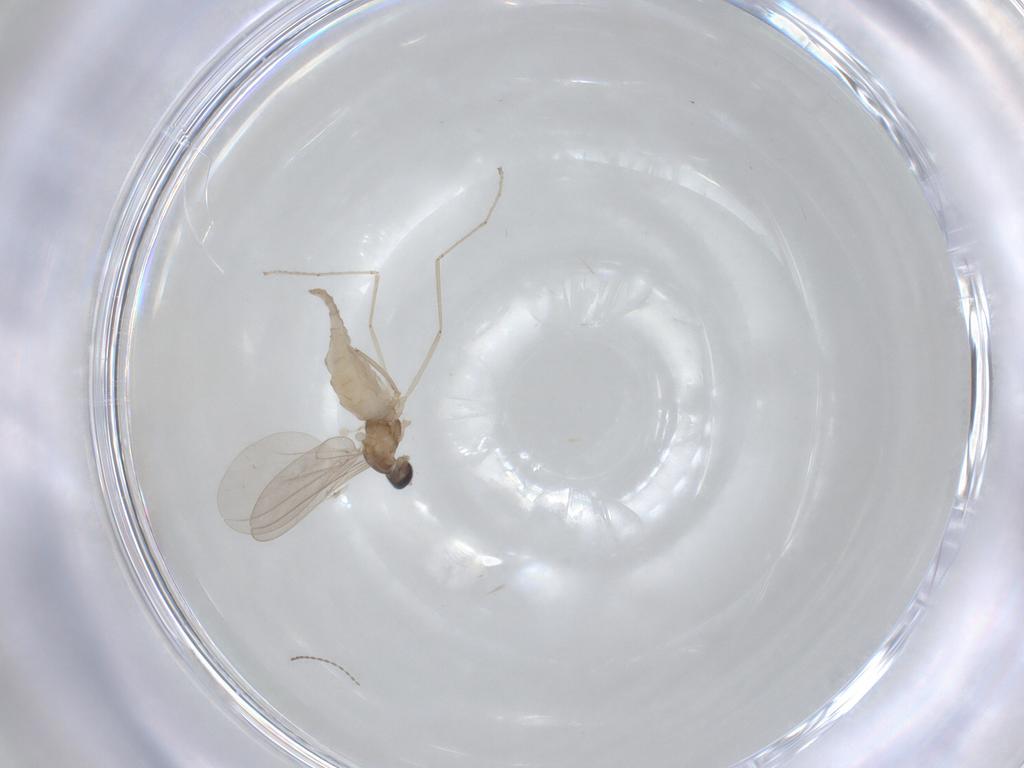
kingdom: Animalia
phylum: Arthropoda
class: Insecta
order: Diptera
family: Cecidomyiidae
